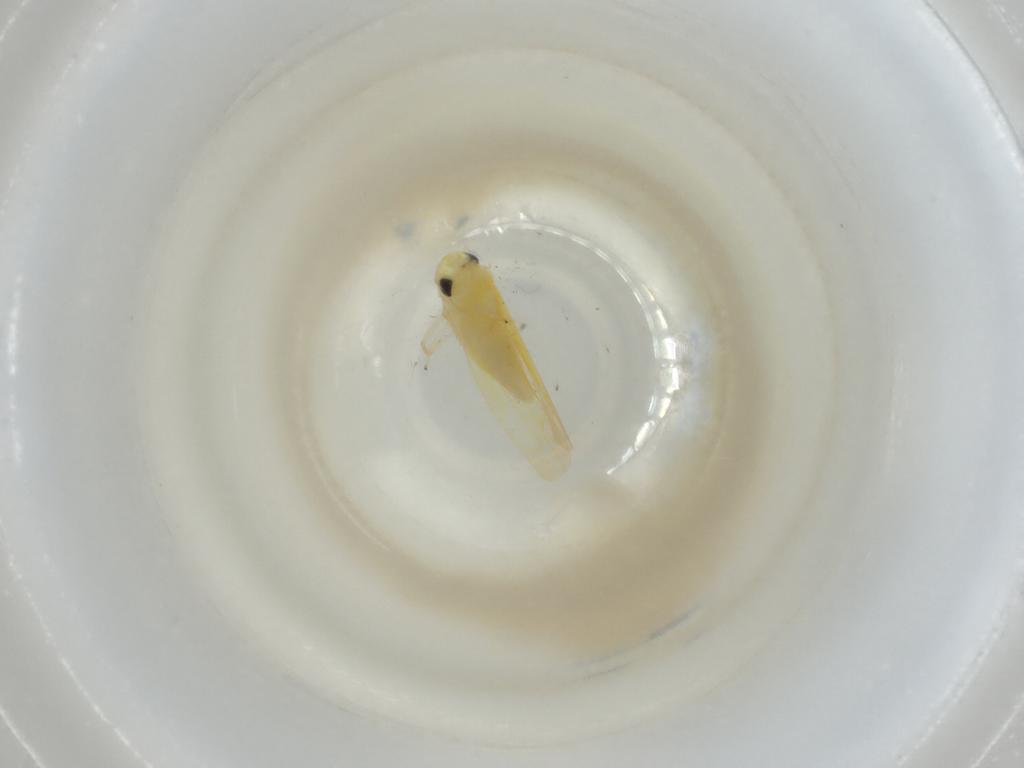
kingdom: Animalia
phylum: Arthropoda
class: Insecta
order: Hemiptera
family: Cicadellidae
